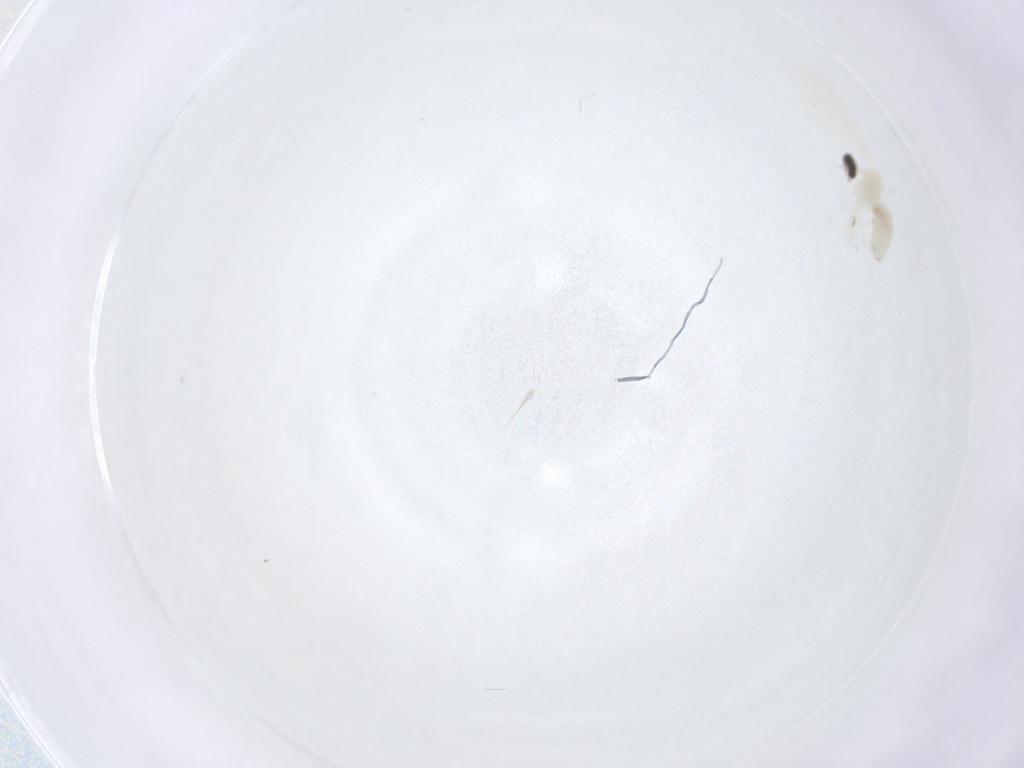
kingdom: Animalia
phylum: Arthropoda
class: Insecta
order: Diptera
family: Cecidomyiidae
